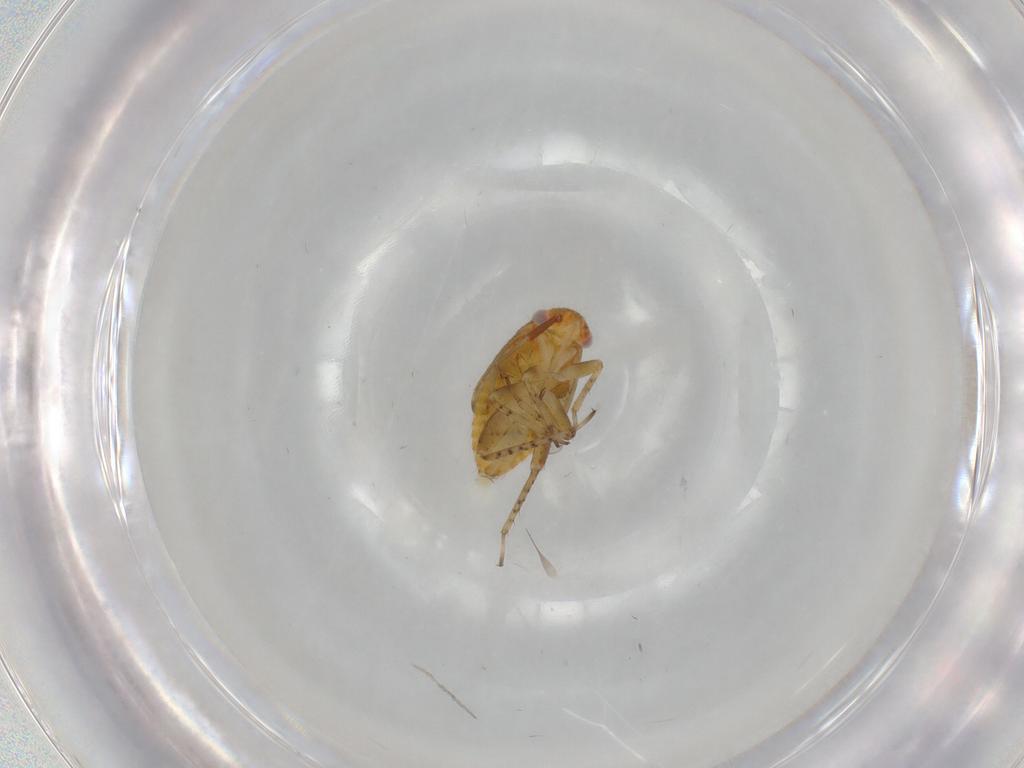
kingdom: Animalia
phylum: Arthropoda
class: Insecta
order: Hemiptera
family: Miridae
